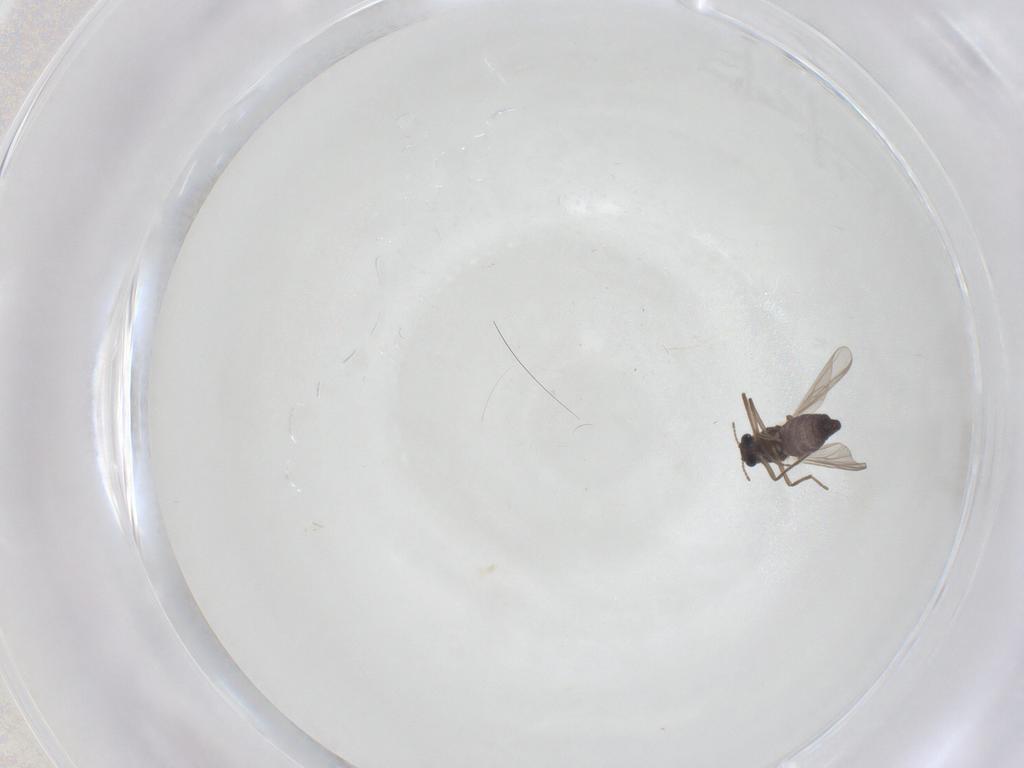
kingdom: Animalia
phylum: Arthropoda
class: Insecta
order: Diptera
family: Chironomidae
